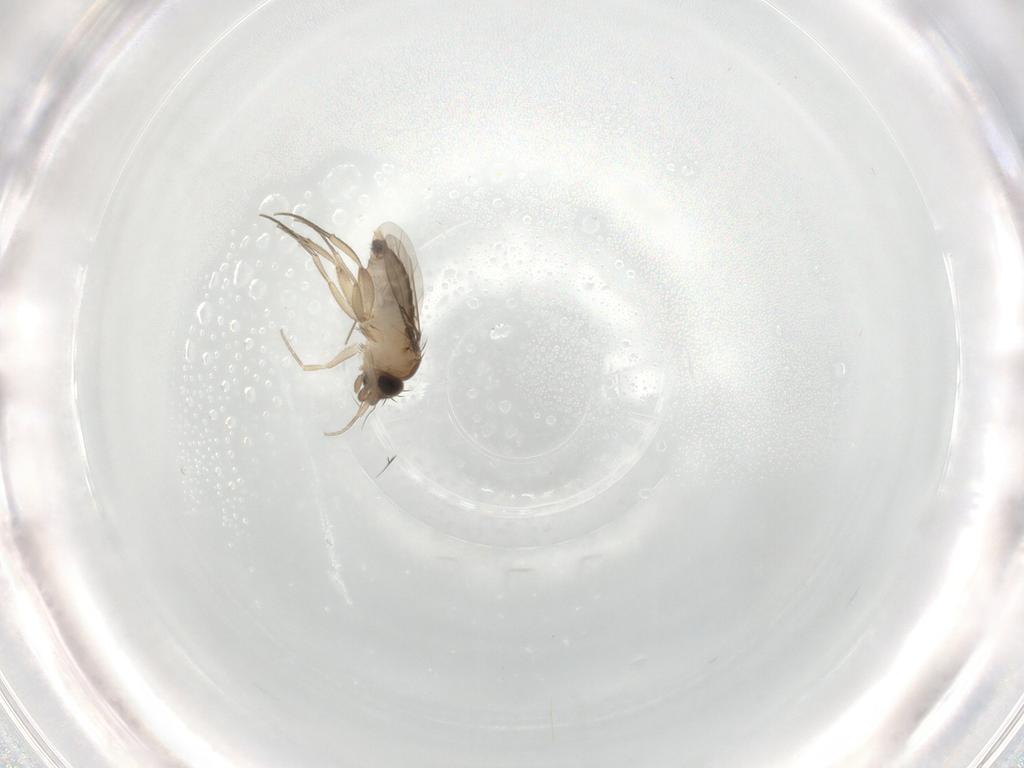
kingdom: Animalia
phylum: Arthropoda
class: Insecta
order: Diptera
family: Phoridae
